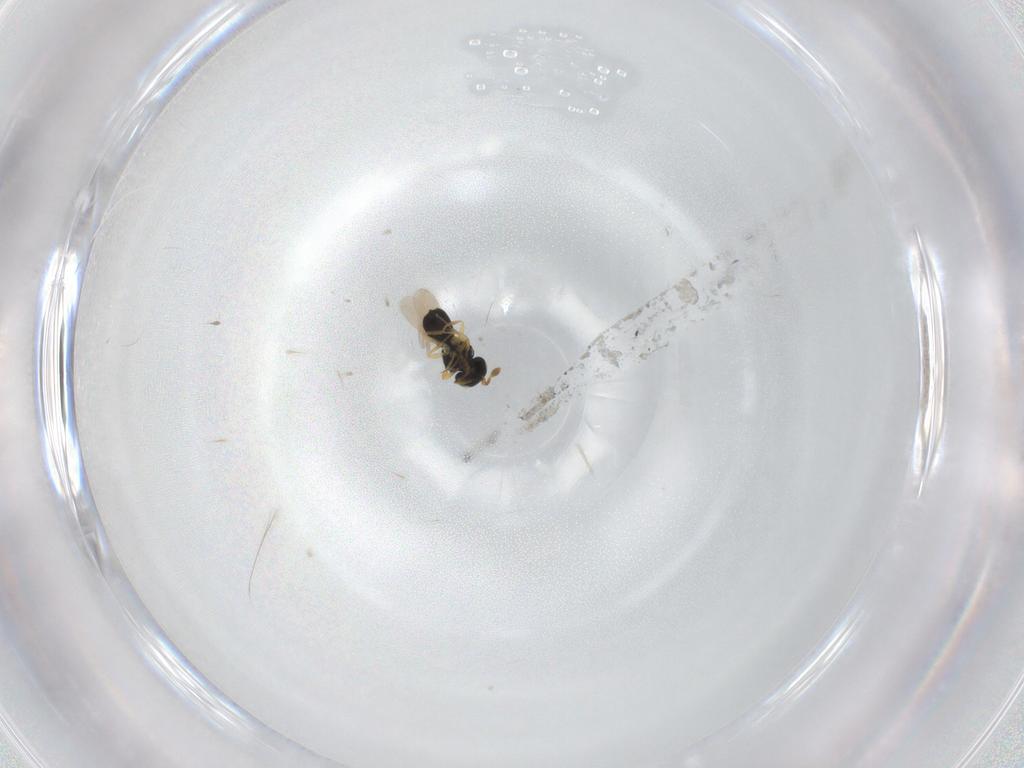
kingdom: Animalia
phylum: Arthropoda
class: Insecta
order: Hymenoptera
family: Scelionidae
